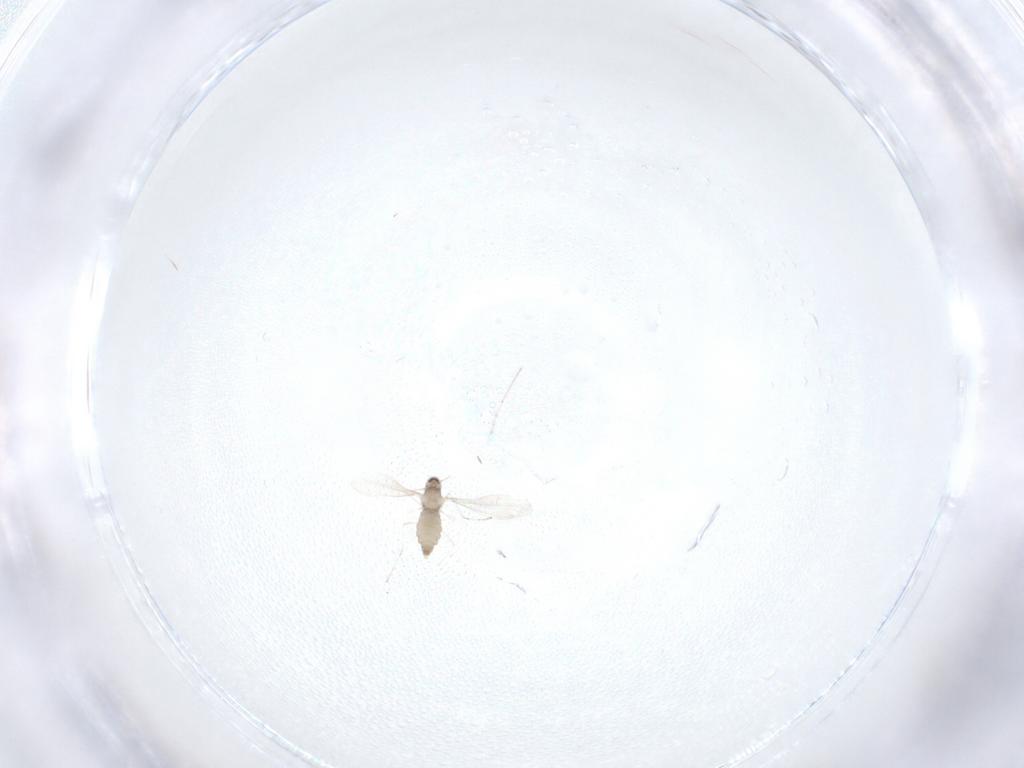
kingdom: Animalia
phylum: Arthropoda
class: Insecta
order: Diptera
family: Cecidomyiidae
